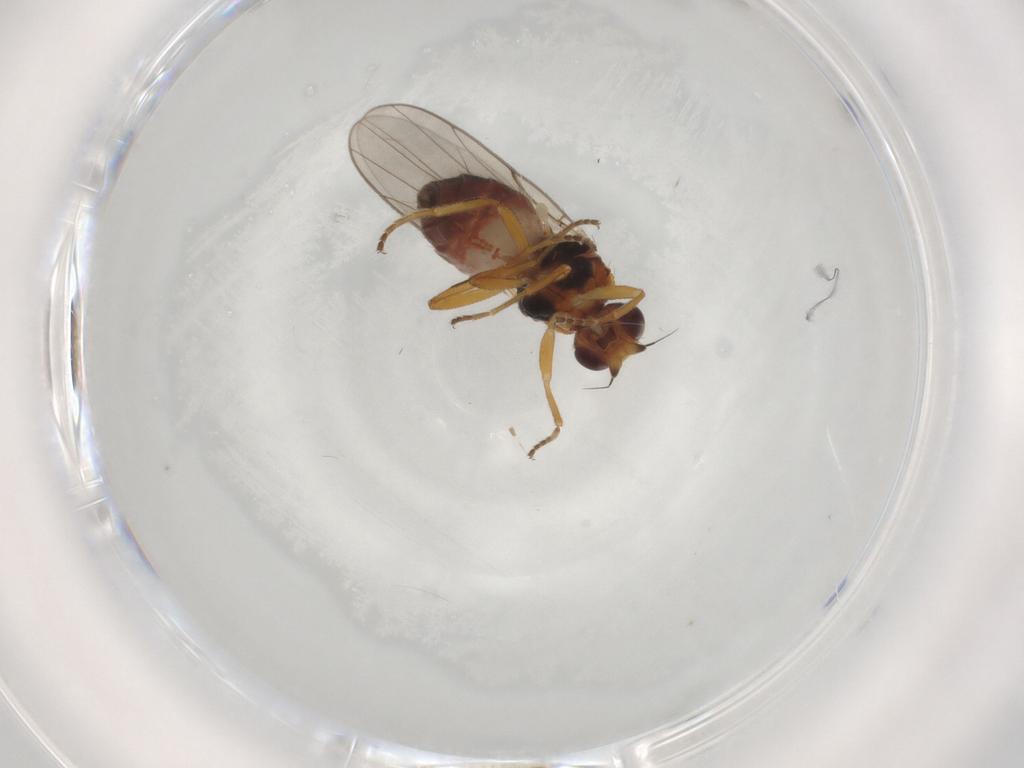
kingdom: Animalia
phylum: Arthropoda
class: Insecta
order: Diptera
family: Chloropidae
